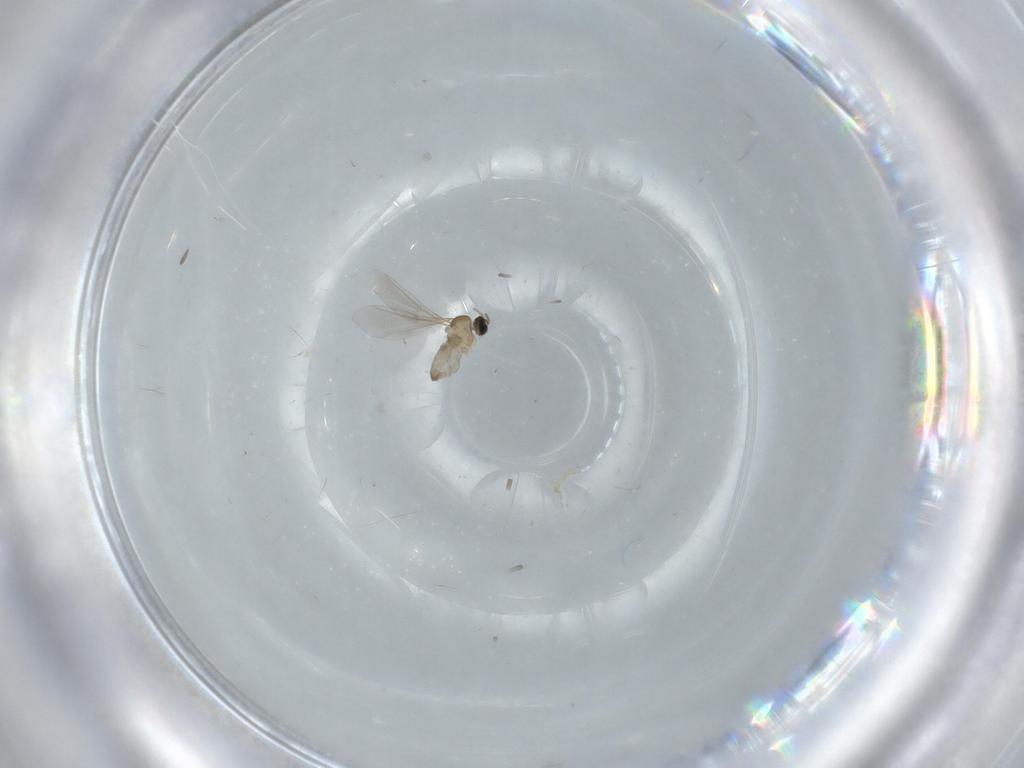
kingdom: Animalia
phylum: Arthropoda
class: Insecta
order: Diptera
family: Cecidomyiidae
